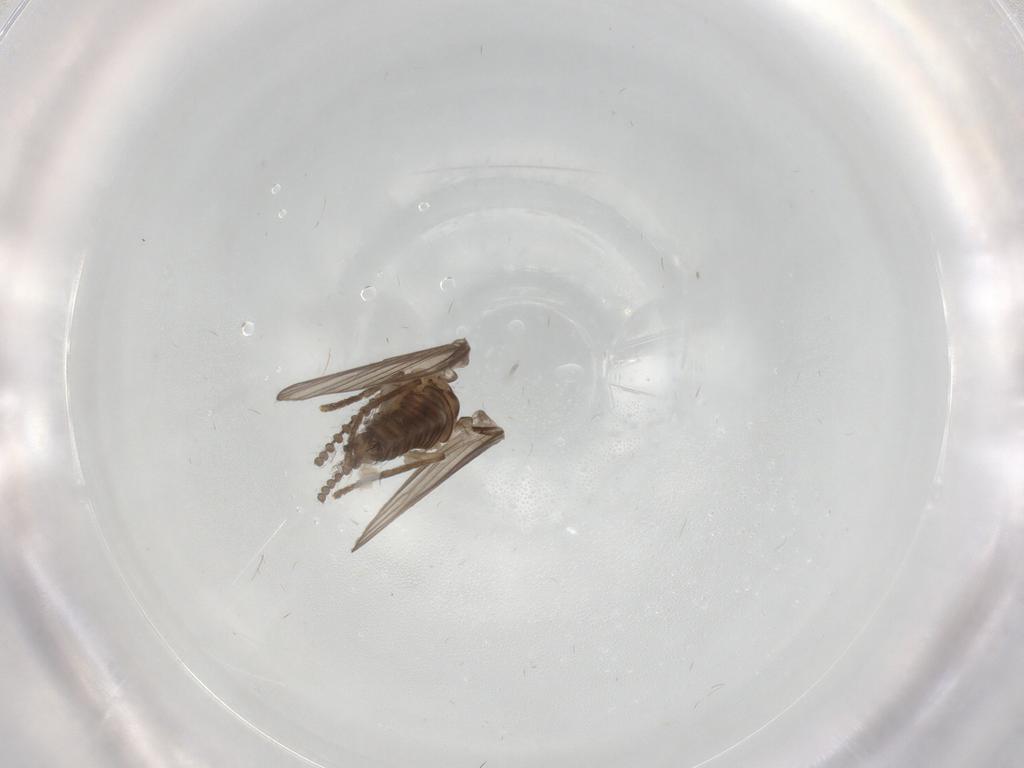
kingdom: Animalia
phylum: Arthropoda
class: Insecta
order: Diptera
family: Psychodidae
